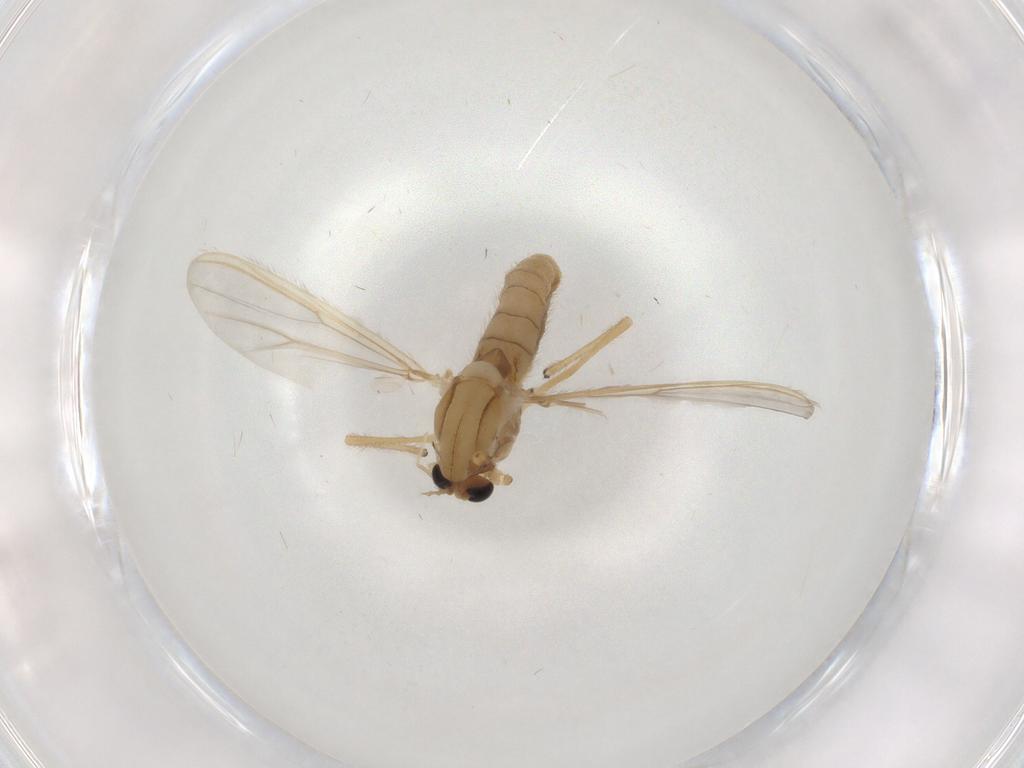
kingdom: Animalia
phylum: Arthropoda
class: Insecta
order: Diptera
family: Chironomidae
